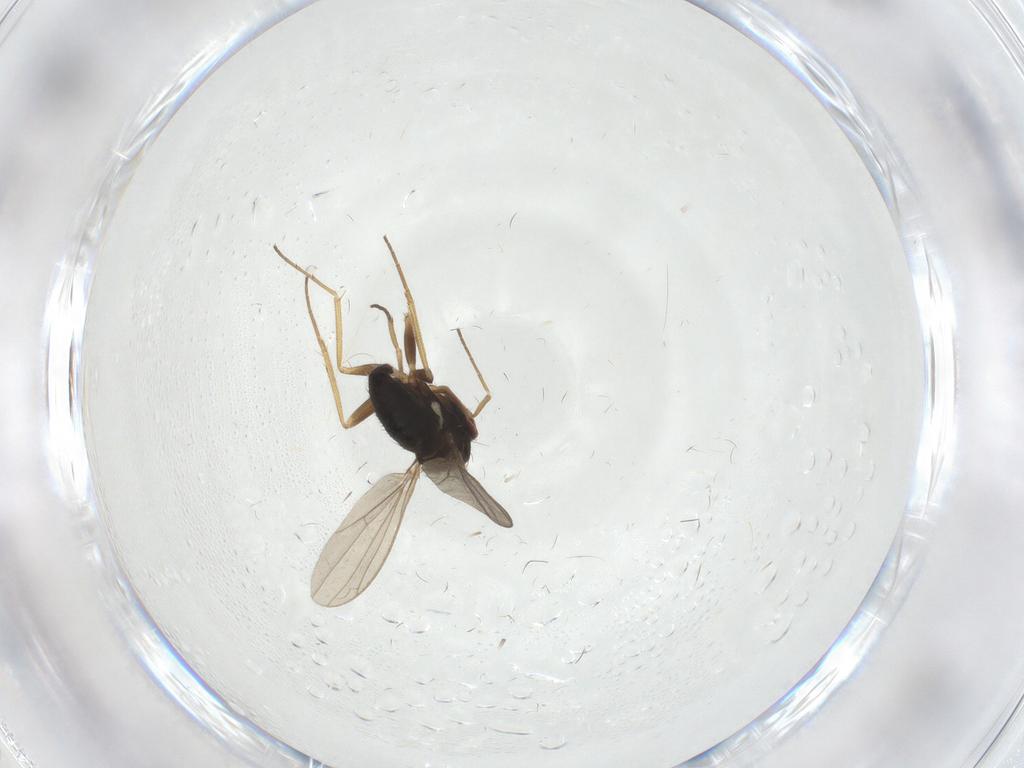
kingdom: Animalia
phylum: Arthropoda
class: Insecta
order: Diptera
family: Dolichopodidae
